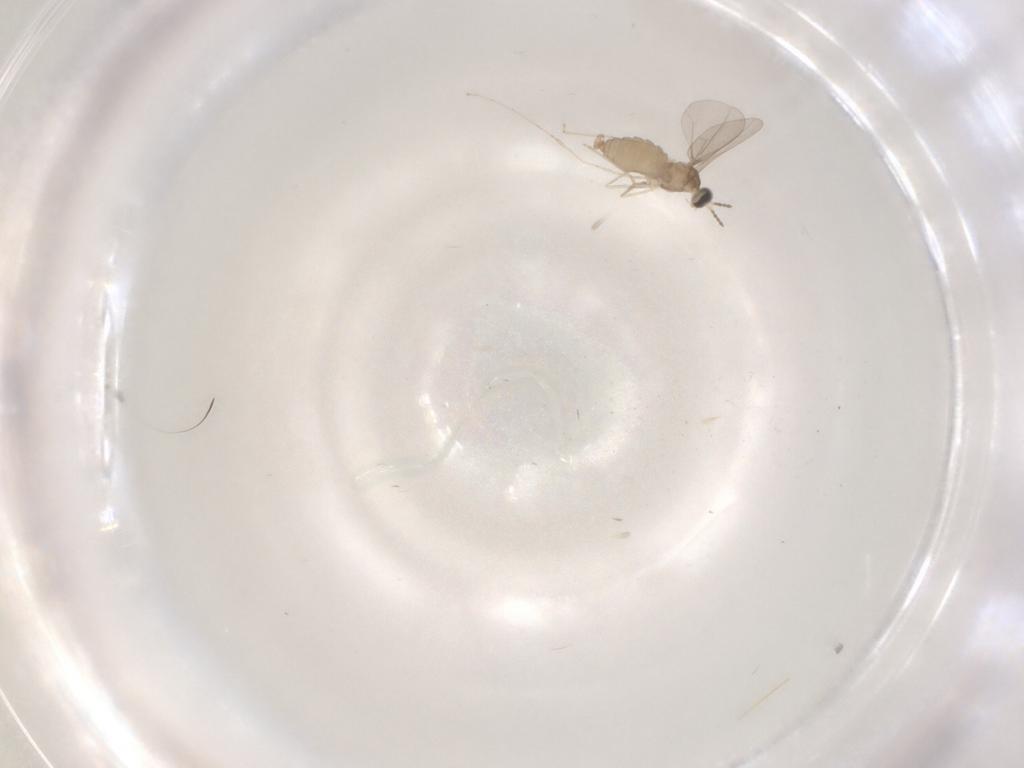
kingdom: Animalia
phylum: Arthropoda
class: Insecta
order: Diptera
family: Cecidomyiidae
